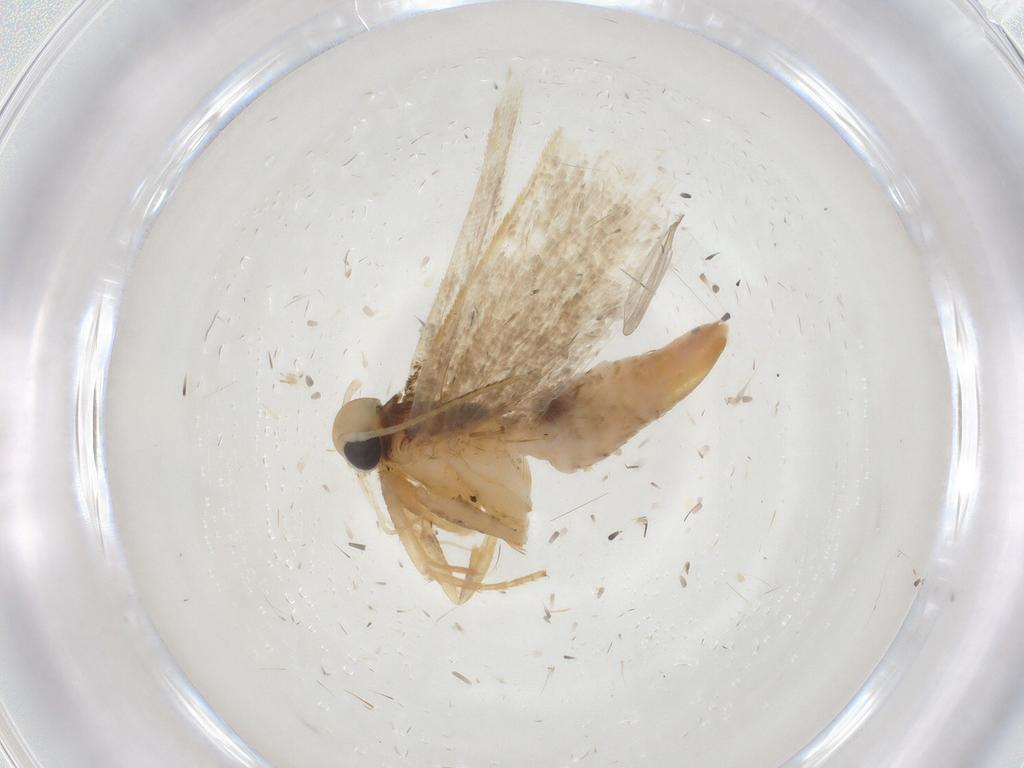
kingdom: Animalia
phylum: Arthropoda
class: Insecta
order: Lepidoptera
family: Gelechiidae
